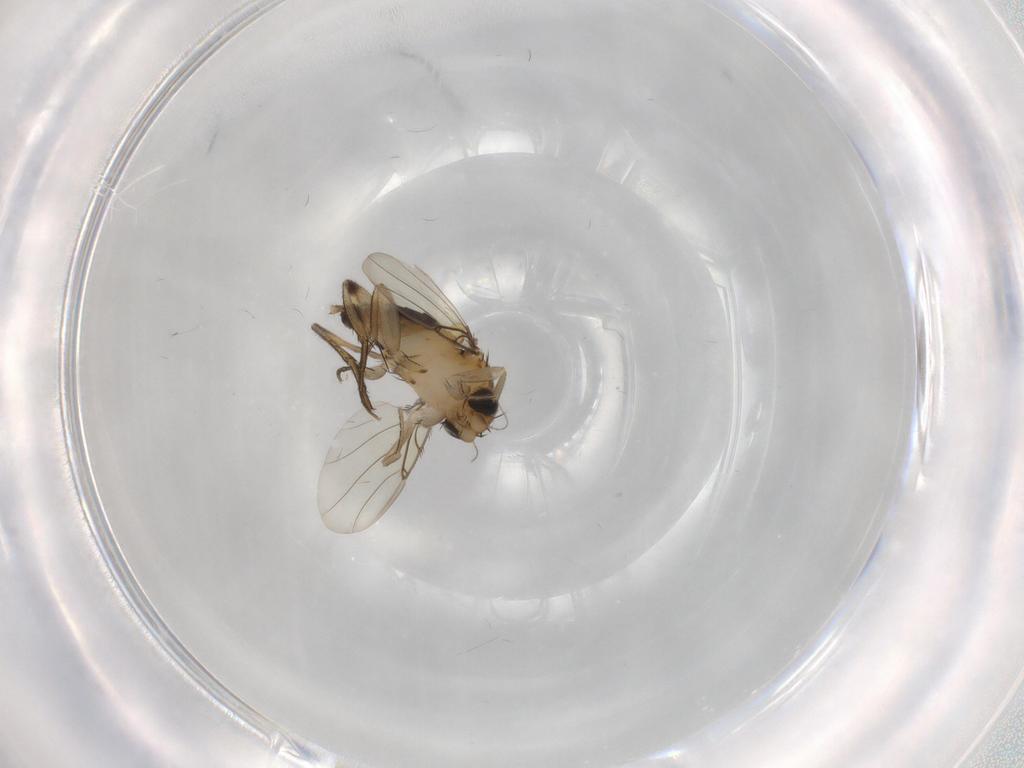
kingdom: Animalia
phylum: Arthropoda
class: Insecta
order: Diptera
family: Phoridae
